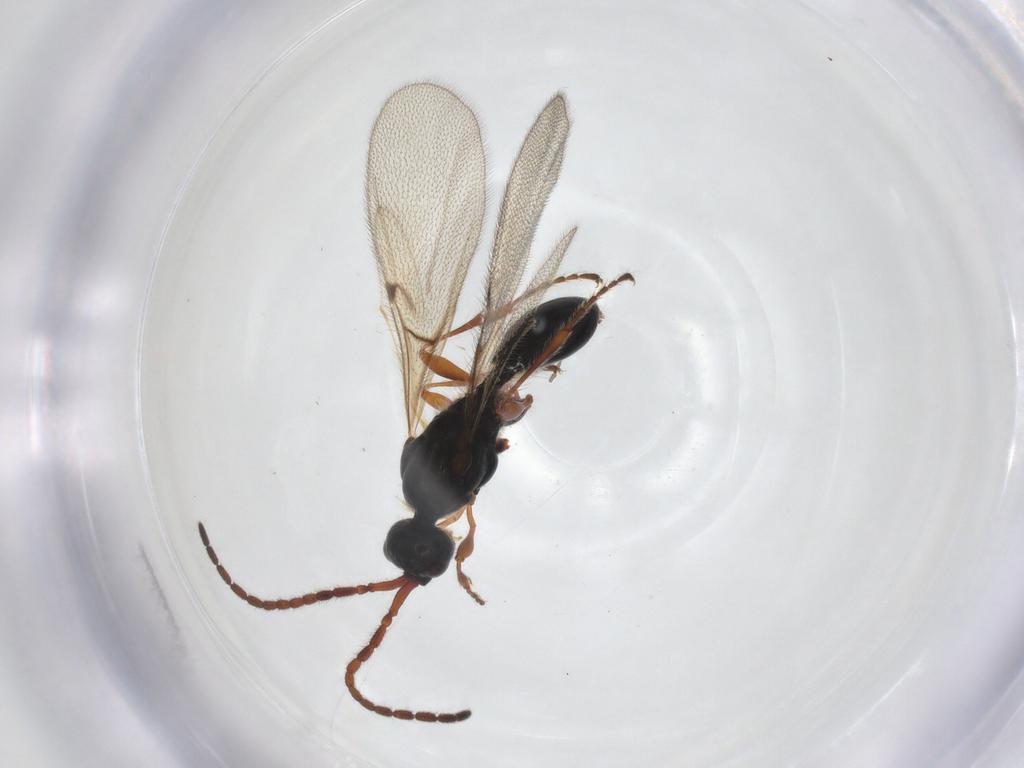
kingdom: Animalia
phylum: Arthropoda
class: Insecta
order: Hymenoptera
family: Diapriidae
